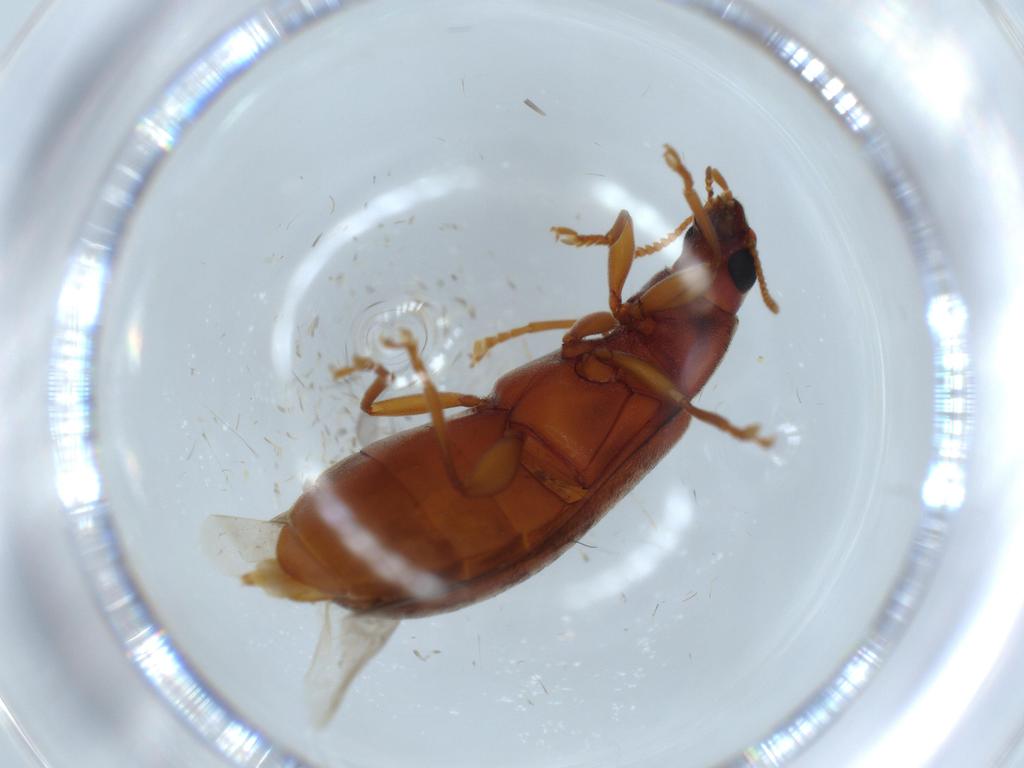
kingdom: Animalia
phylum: Arthropoda
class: Insecta
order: Coleoptera
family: Mycteridae
